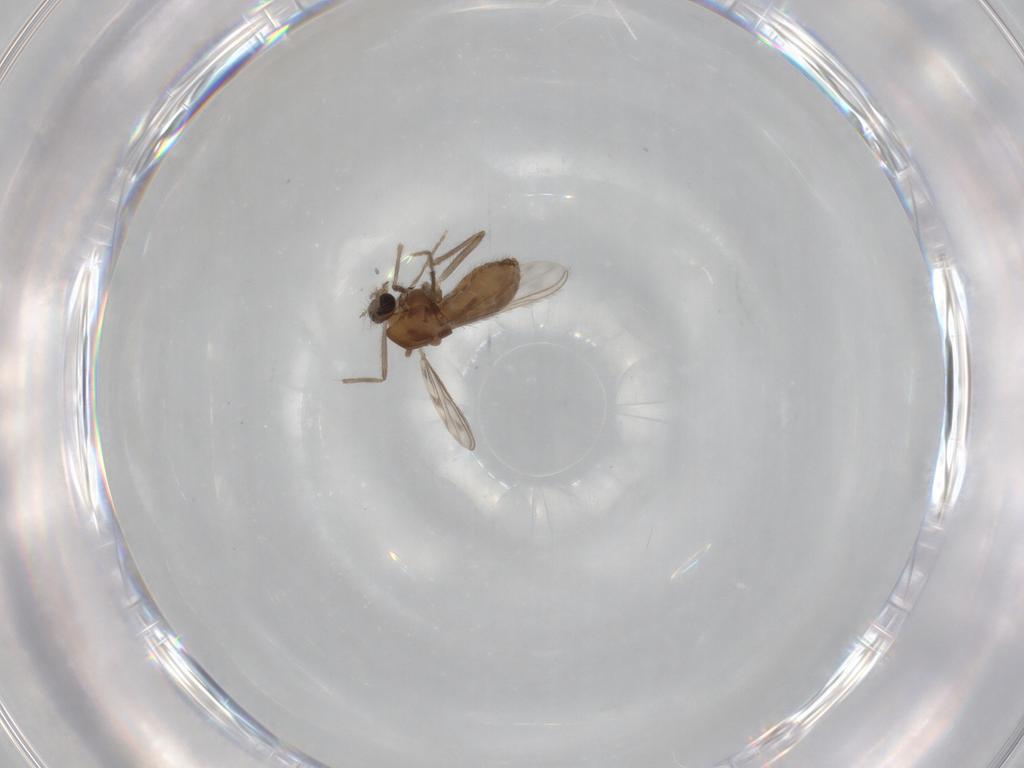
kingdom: Animalia
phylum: Arthropoda
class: Insecta
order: Diptera
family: Chironomidae
